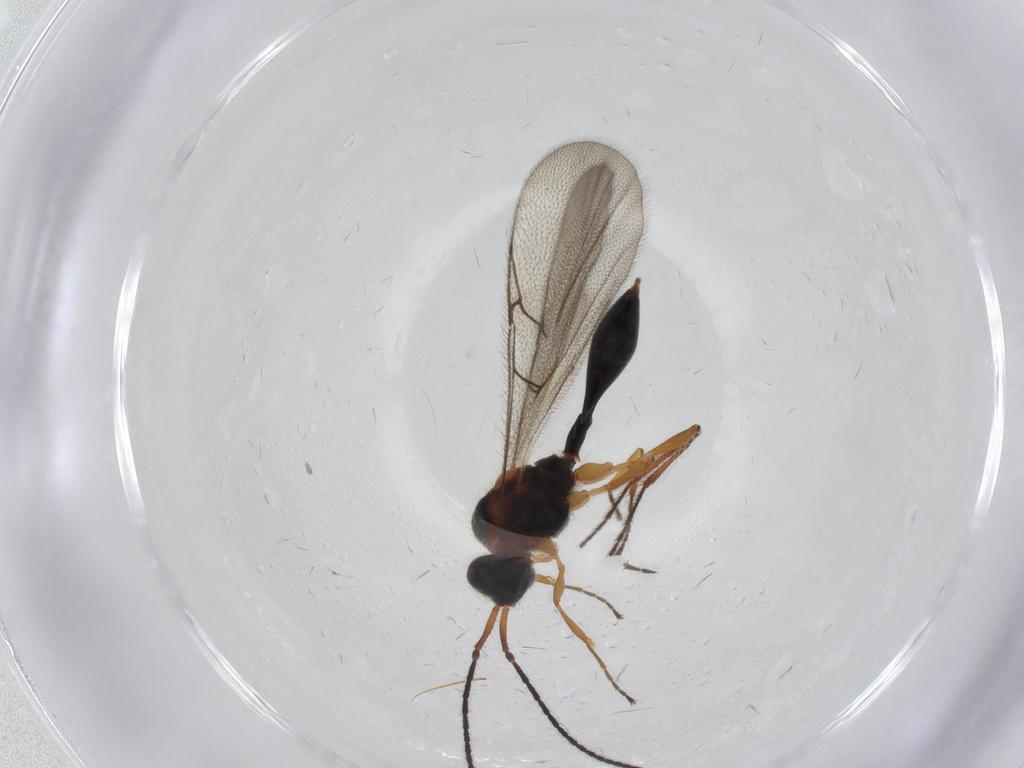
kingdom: Animalia
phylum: Arthropoda
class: Insecta
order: Hymenoptera
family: Diapriidae
